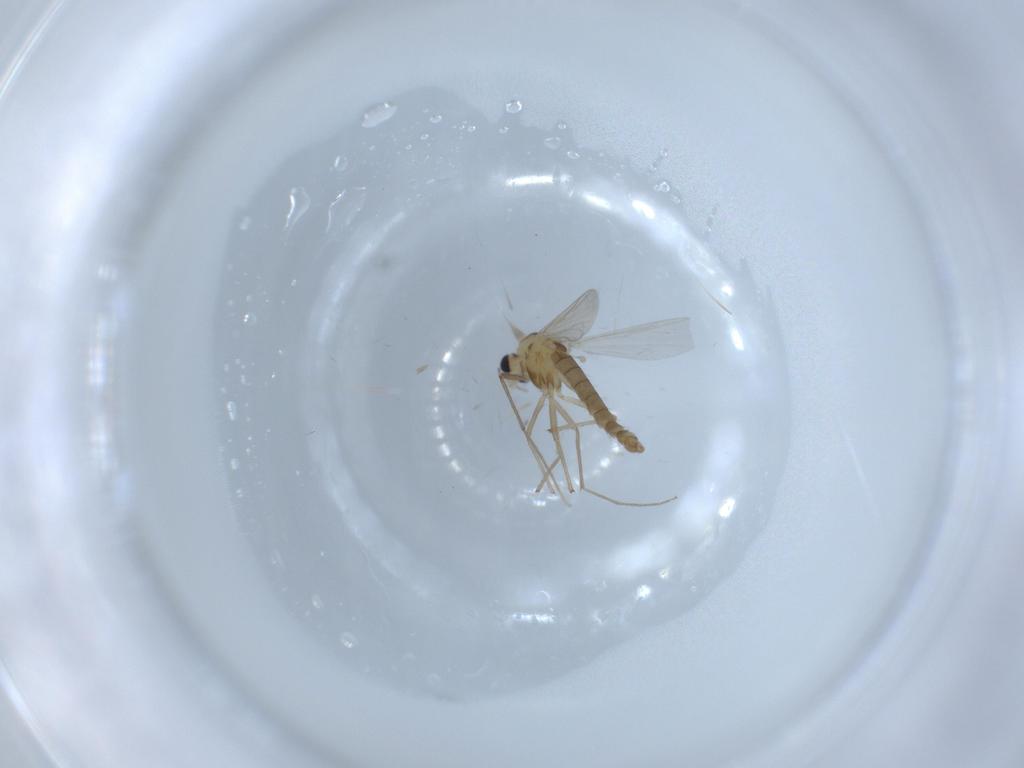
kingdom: Animalia
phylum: Arthropoda
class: Insecta
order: Diptera
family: Chironomidae
